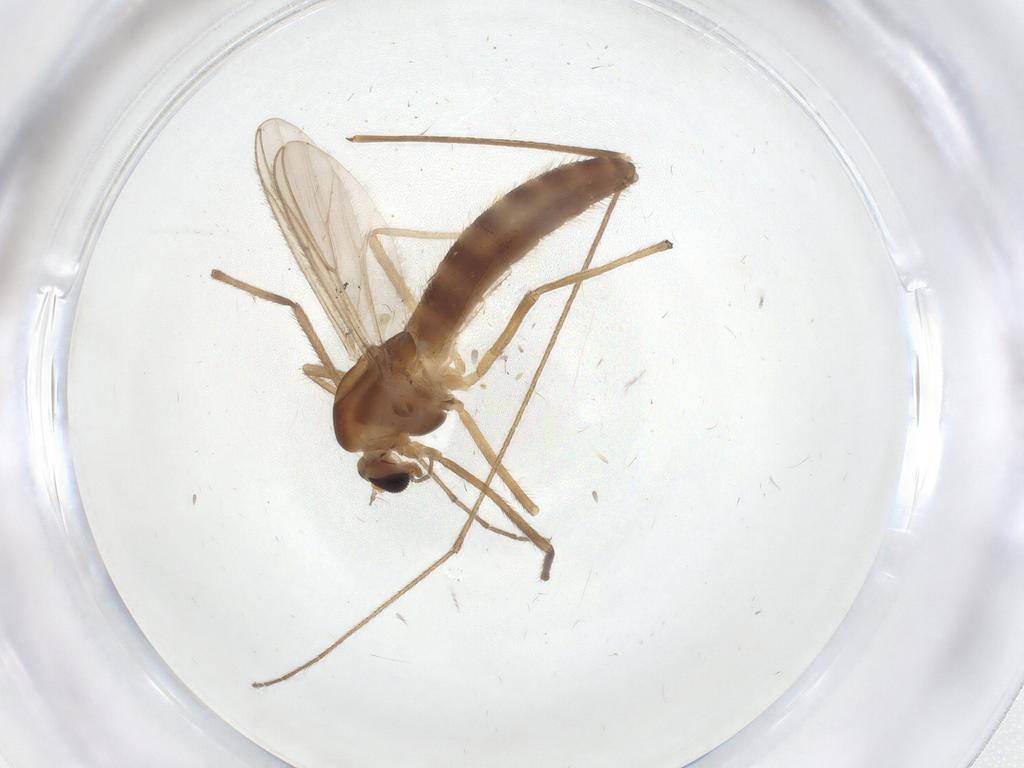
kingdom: Animalia
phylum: Arthropoda
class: Insecta
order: Diptera
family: Chironomidae
